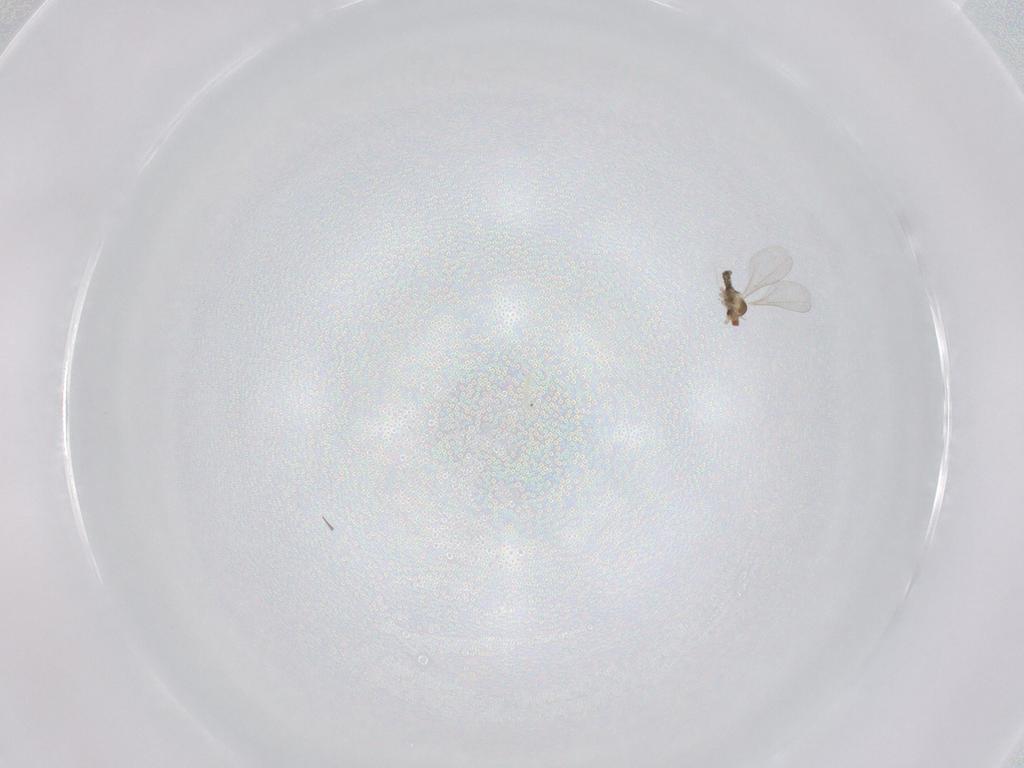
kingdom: Animalia
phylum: Arthropoda
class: Insecta
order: Diptera
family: Cecidomyiidae
